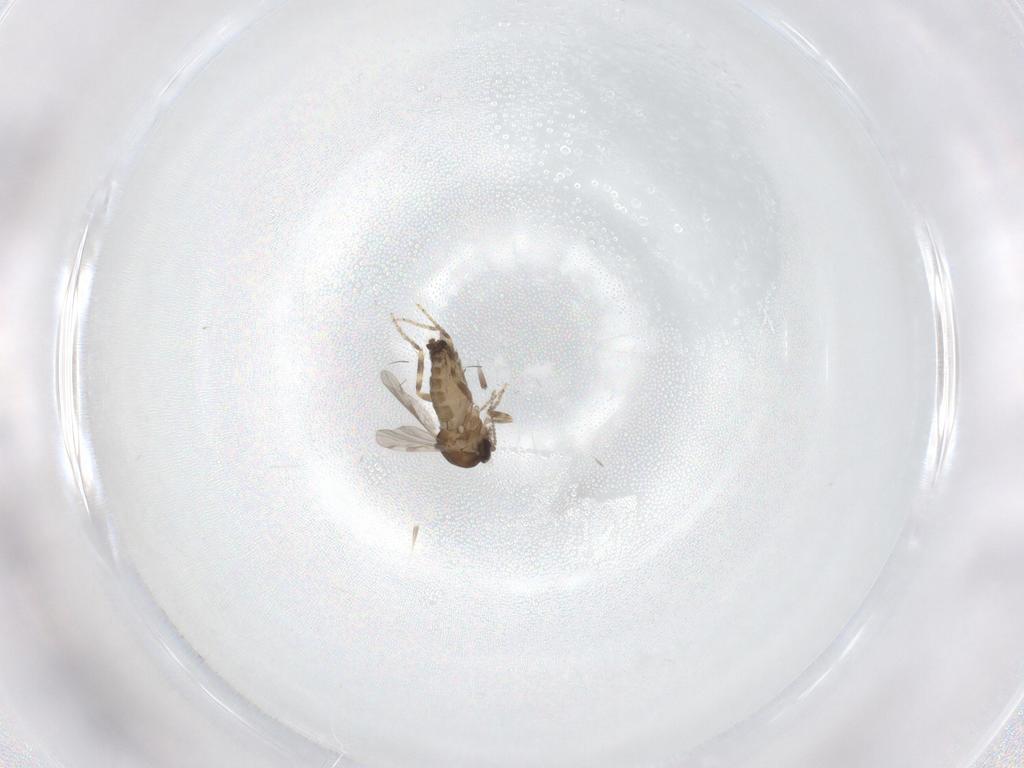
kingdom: Animalia
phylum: Arthropoda
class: Insecta
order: Diptera
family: Ceratopogonidae
